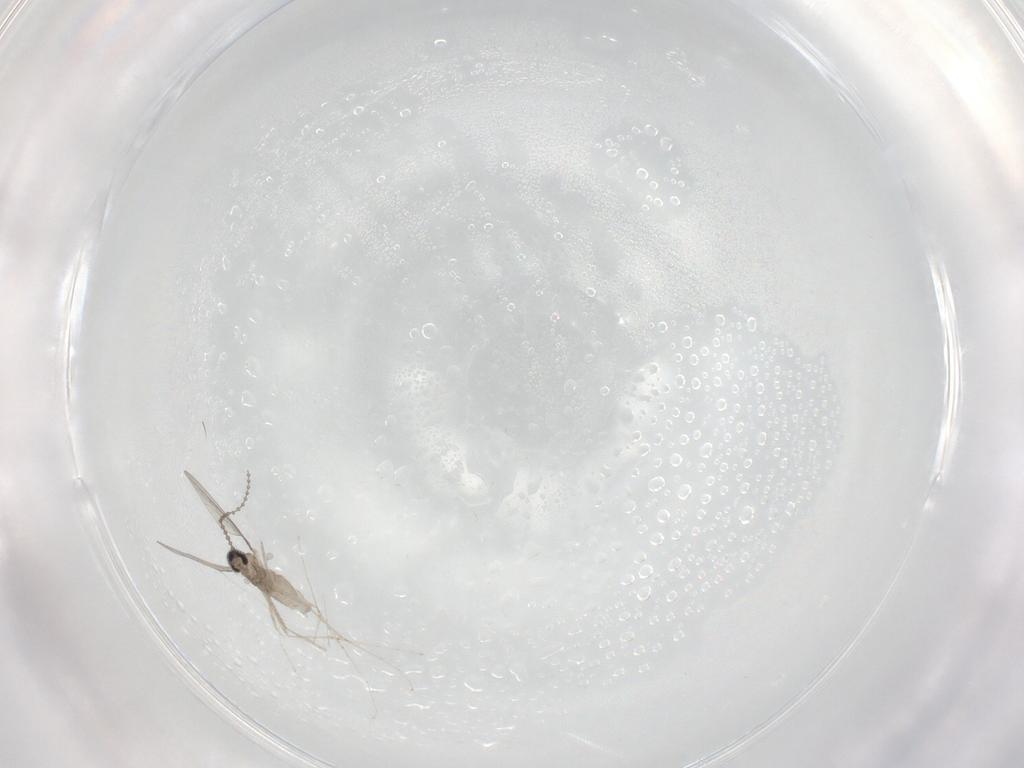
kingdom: Animalia
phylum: Arthropoda
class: Insecta
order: Diptera
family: Cecidomyiidae
